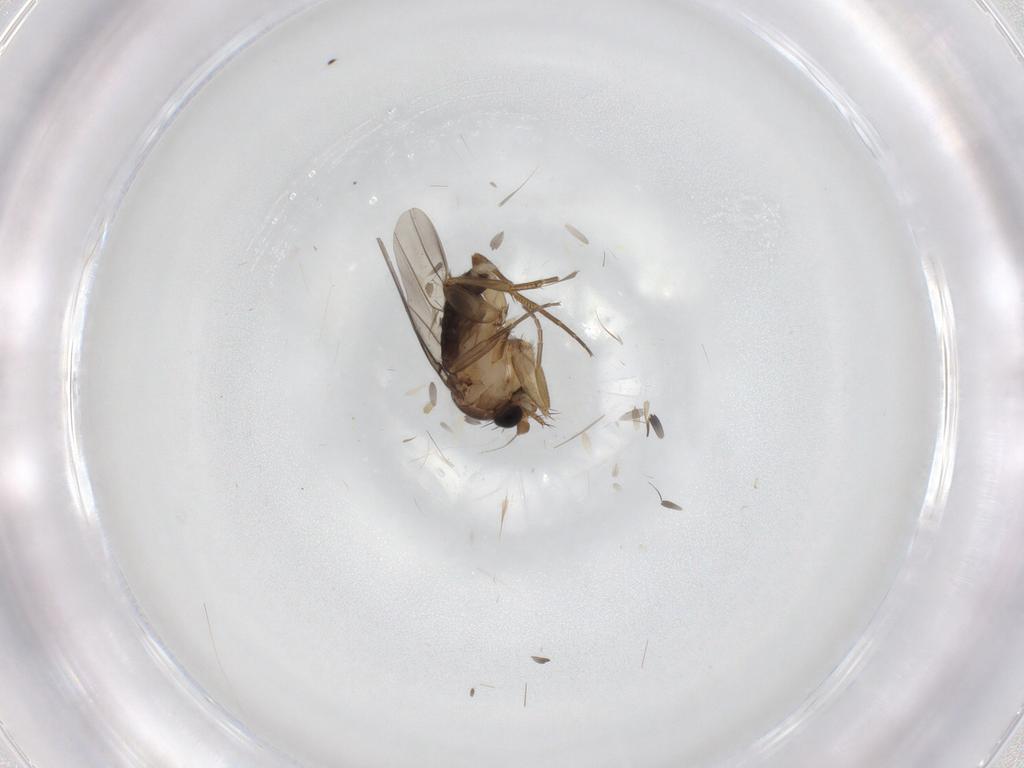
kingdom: Animalia
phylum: Arthropoda
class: Insecta
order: Diptera
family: Phoridae
